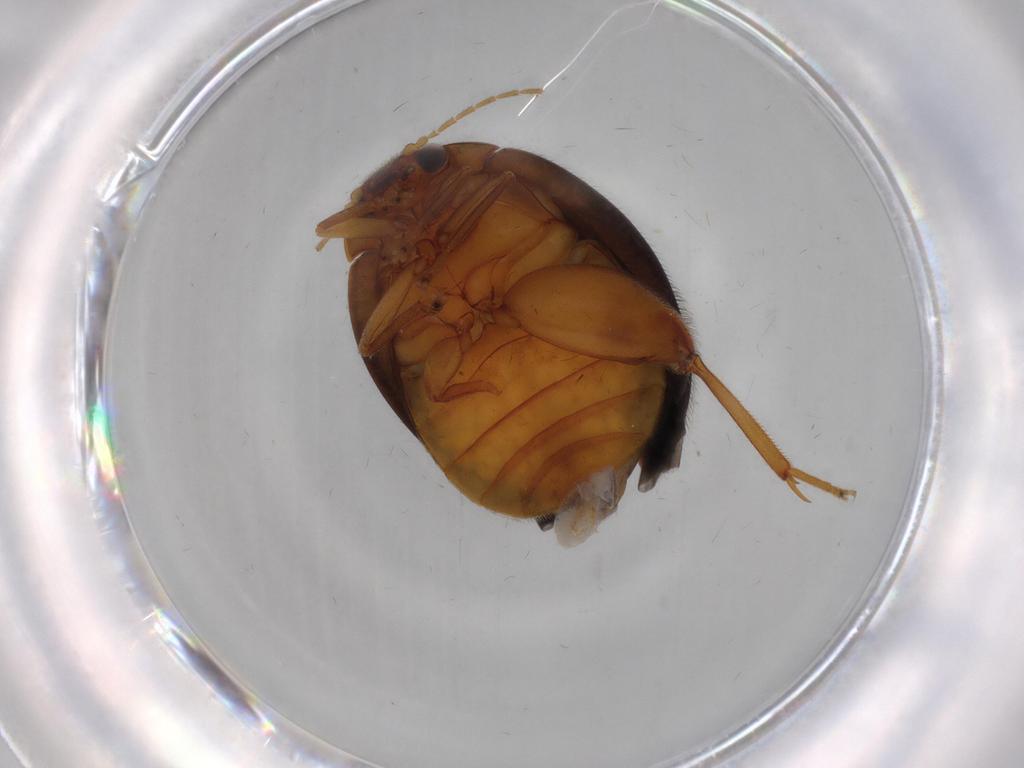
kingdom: Animalia
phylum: Arthropoda
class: Insecta
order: Coleoptera
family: Scirtidae
